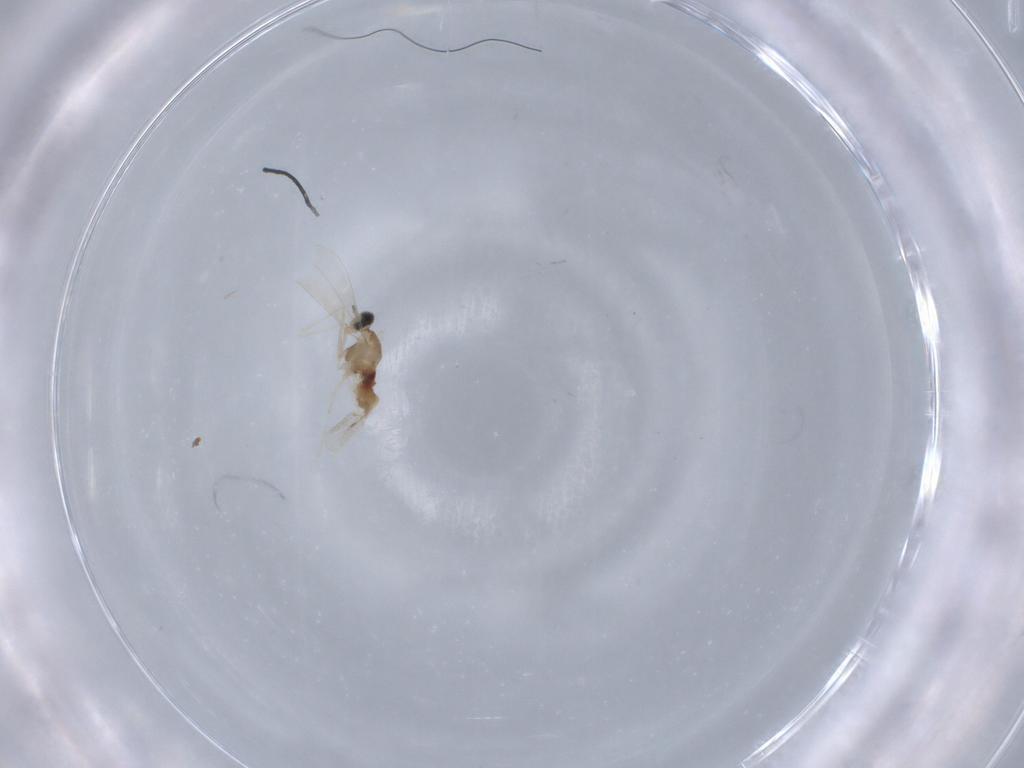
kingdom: Animalia
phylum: Arthropoda
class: Insecta
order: Diptera
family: Cecidomyiidae
